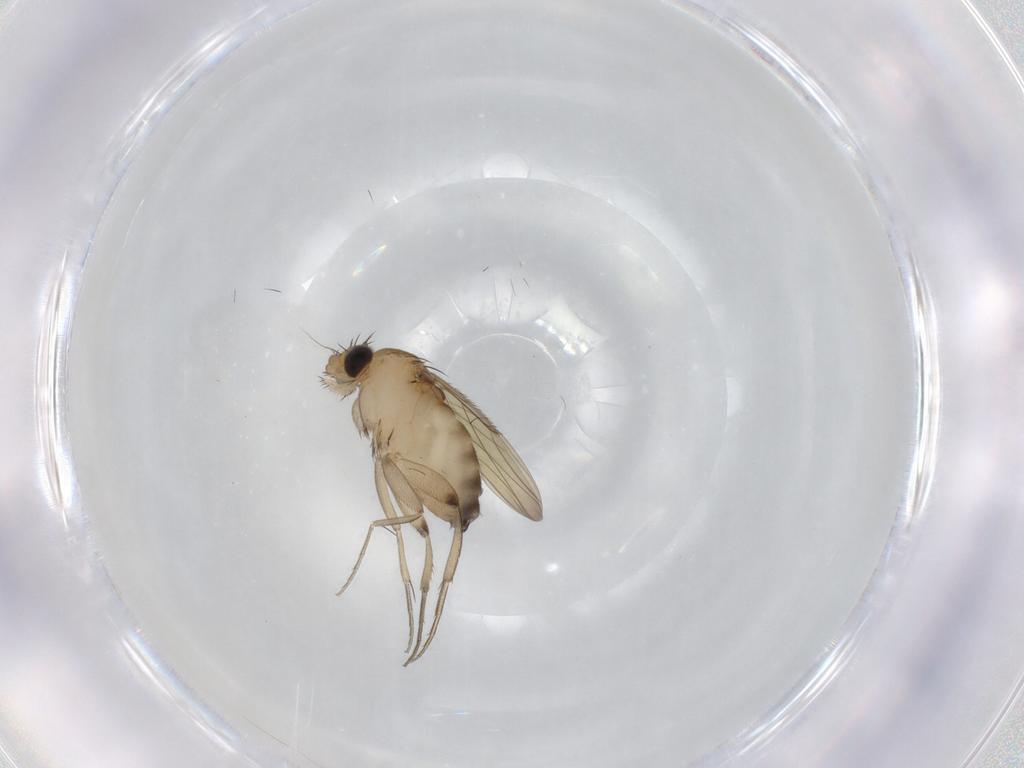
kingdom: Animalia
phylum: Arthropoda
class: Insecta
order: Diptera
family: Phoridae
